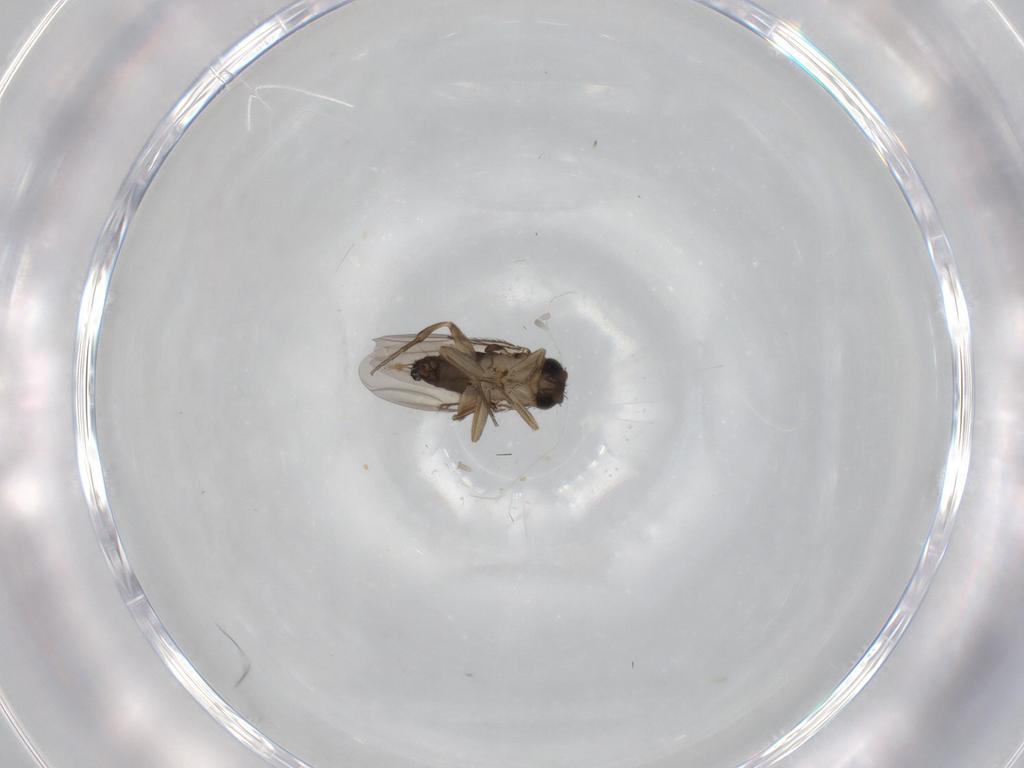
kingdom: Animalia
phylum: Arthropoda
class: Insecta
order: Diptera
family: Phoridae
